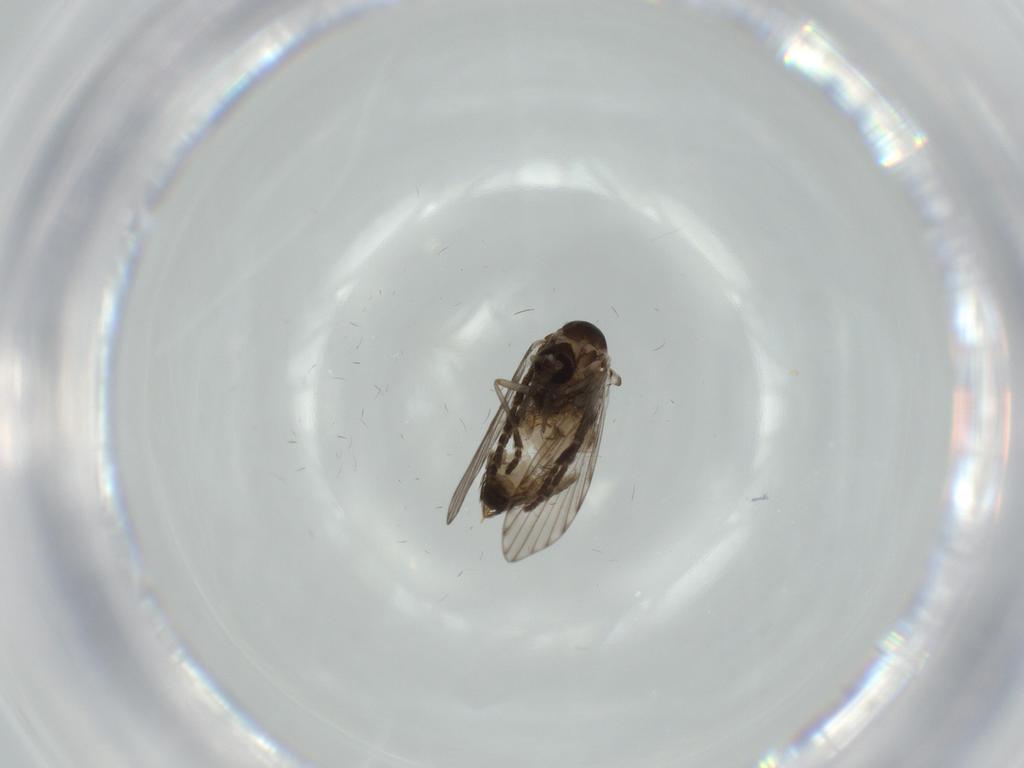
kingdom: Animalia
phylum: Arthropoda
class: Insecta
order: Diptera
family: Psychodidae
